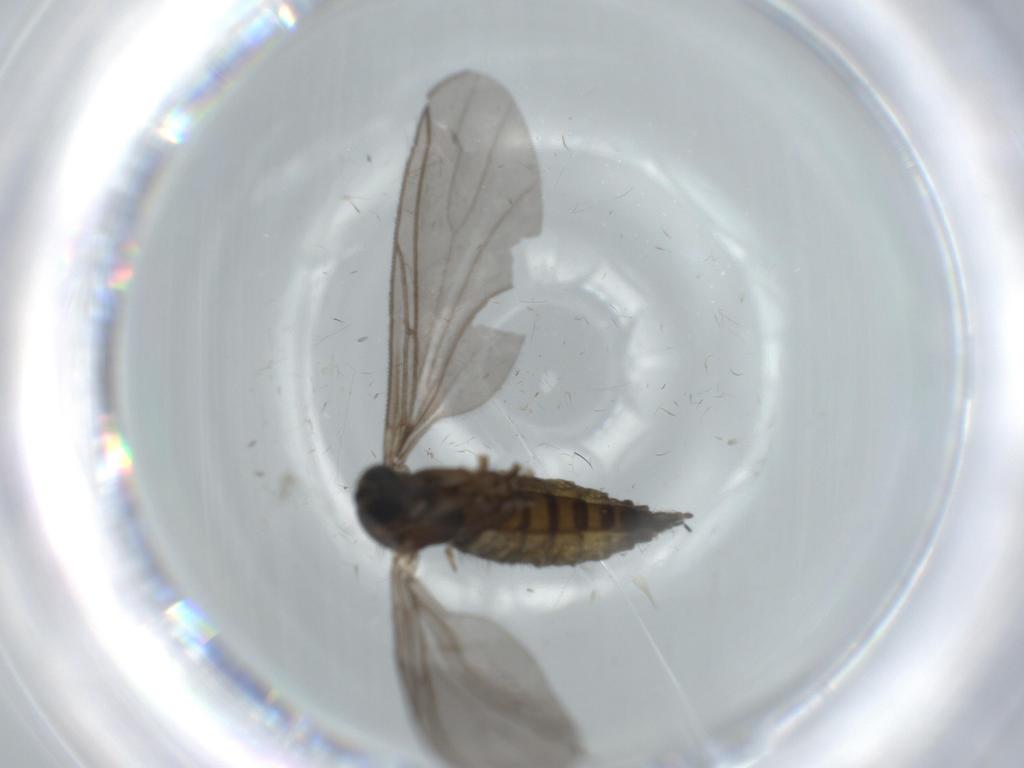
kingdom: Animalia
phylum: Arthropoda
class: Insecta
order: Diptera
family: Sciaridae
